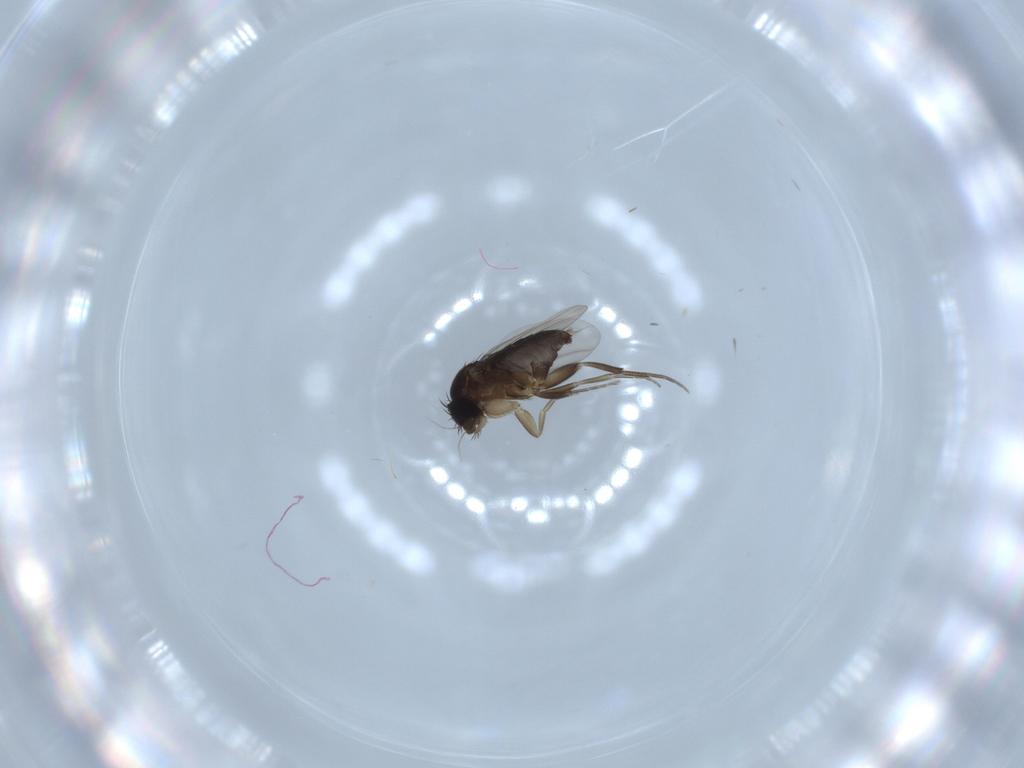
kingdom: Animalia
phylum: Arthropoda
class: Insecta
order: Diptera
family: Phoridae
